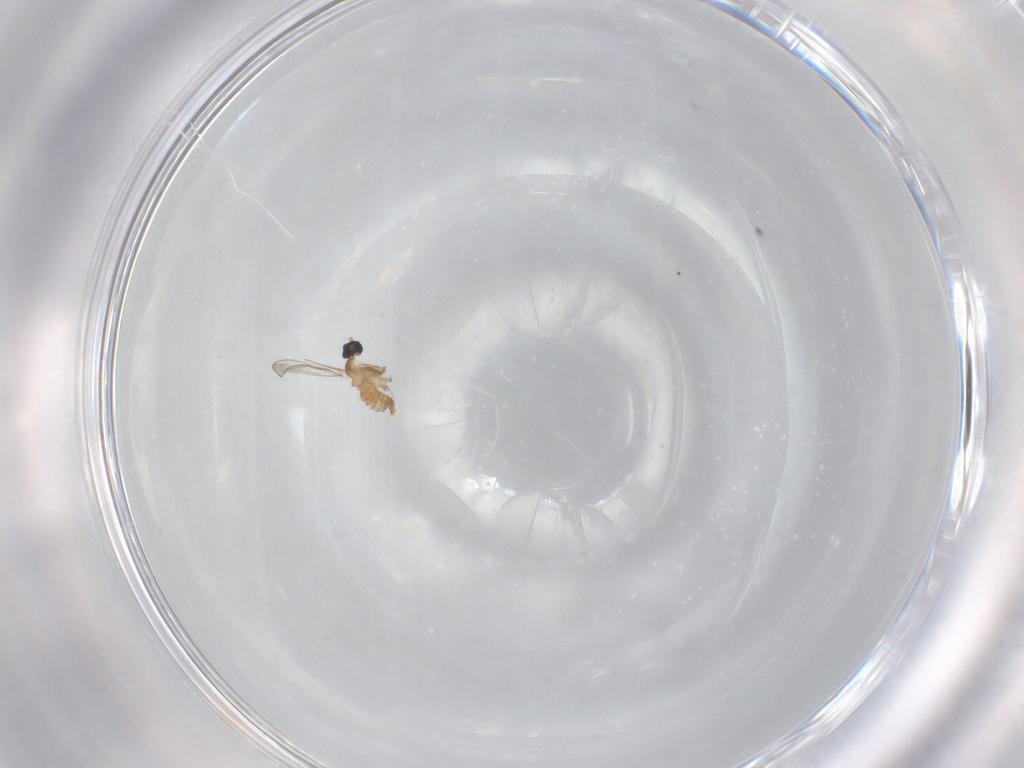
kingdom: Animalia
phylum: Arthropoda
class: Insecta
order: Diptera
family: Cecidomyiidae
